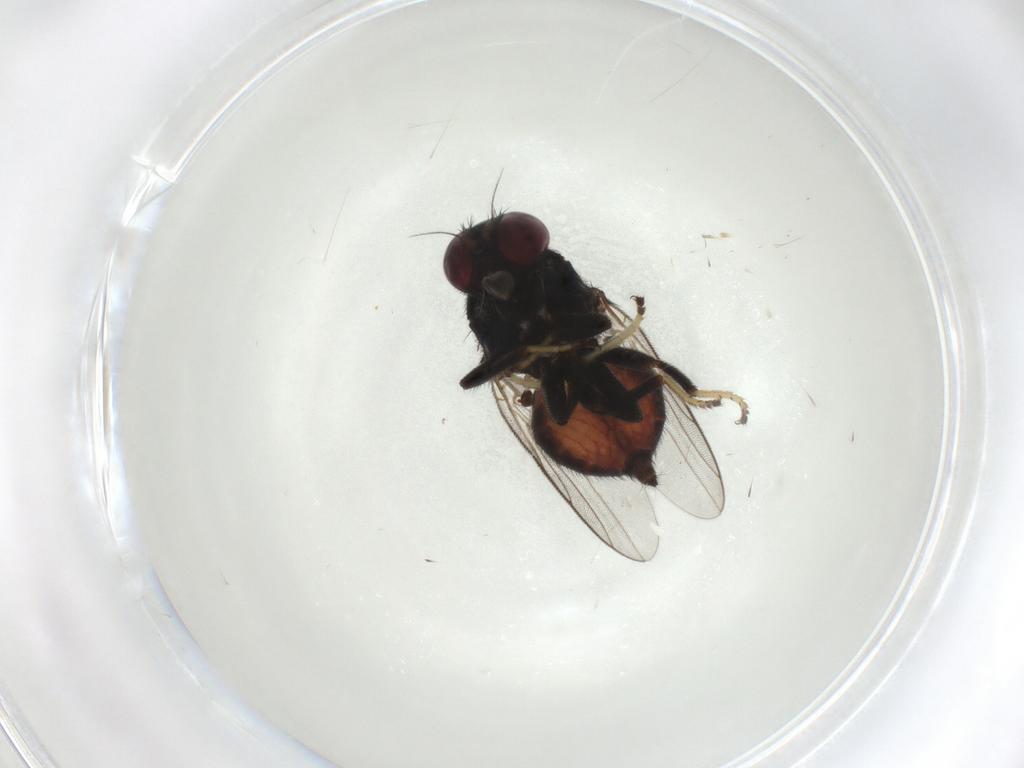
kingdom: Animalia
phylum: Arthropoda
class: Insecta
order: Diptera
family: Chloropidae
